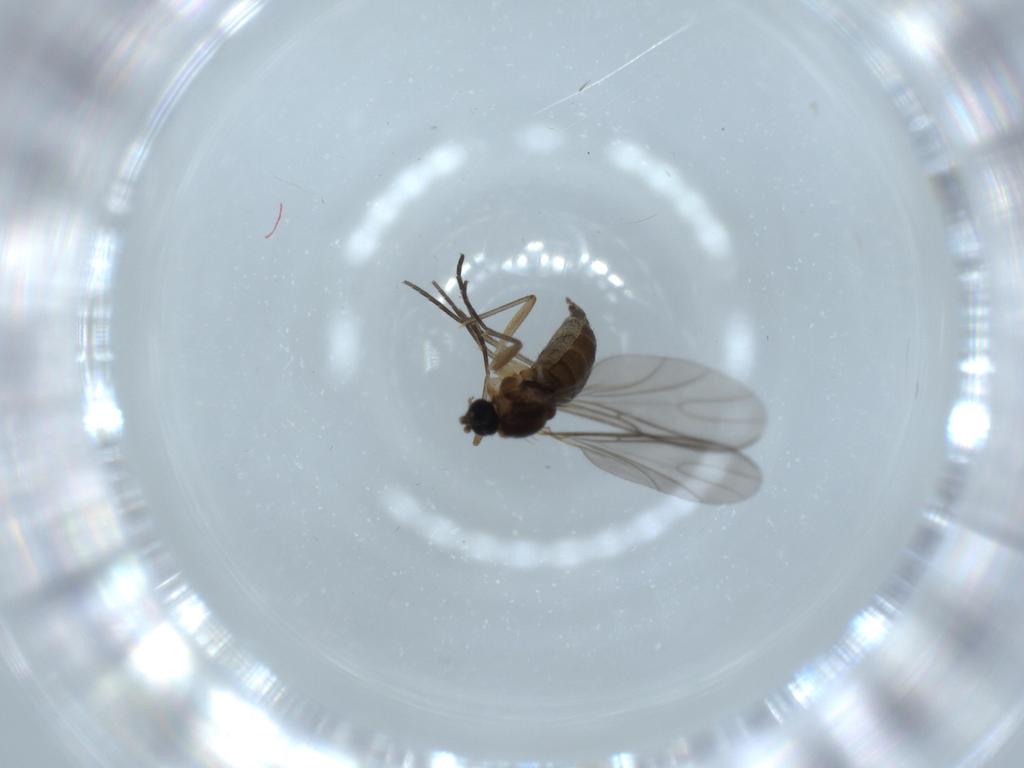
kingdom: Animalia
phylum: Arthropoda
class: Insecta
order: Diptera
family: Sciaridae
